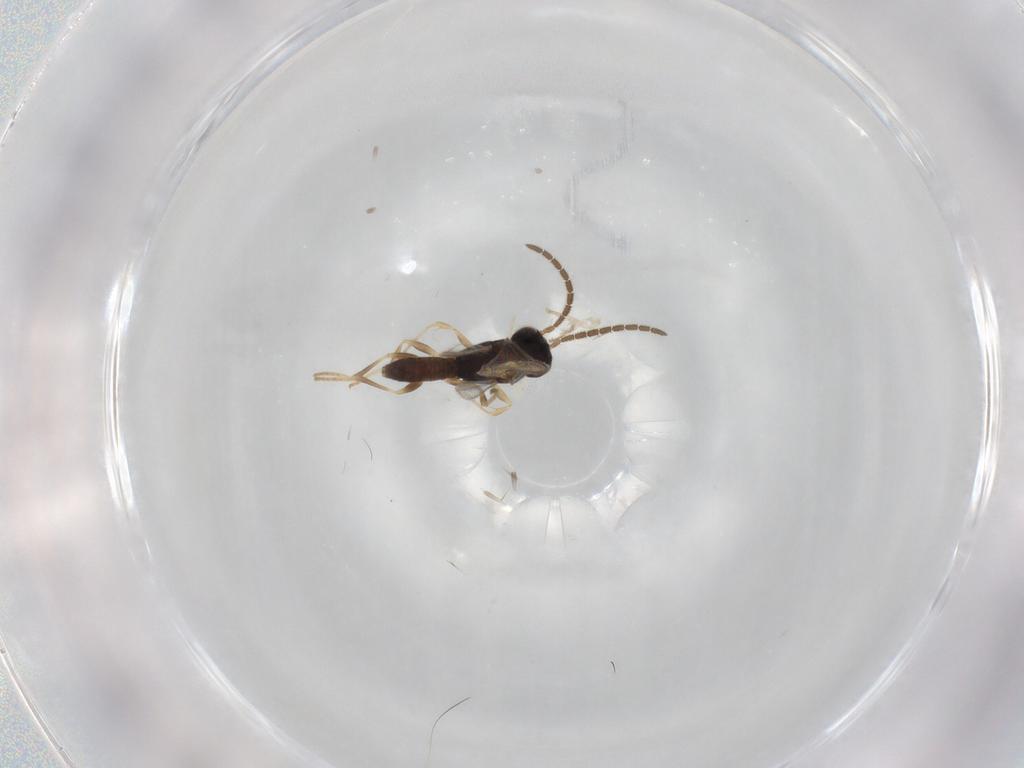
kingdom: Animalia
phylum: Arthropoda
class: Insecta
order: Hymenoptera
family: Dryinidae
